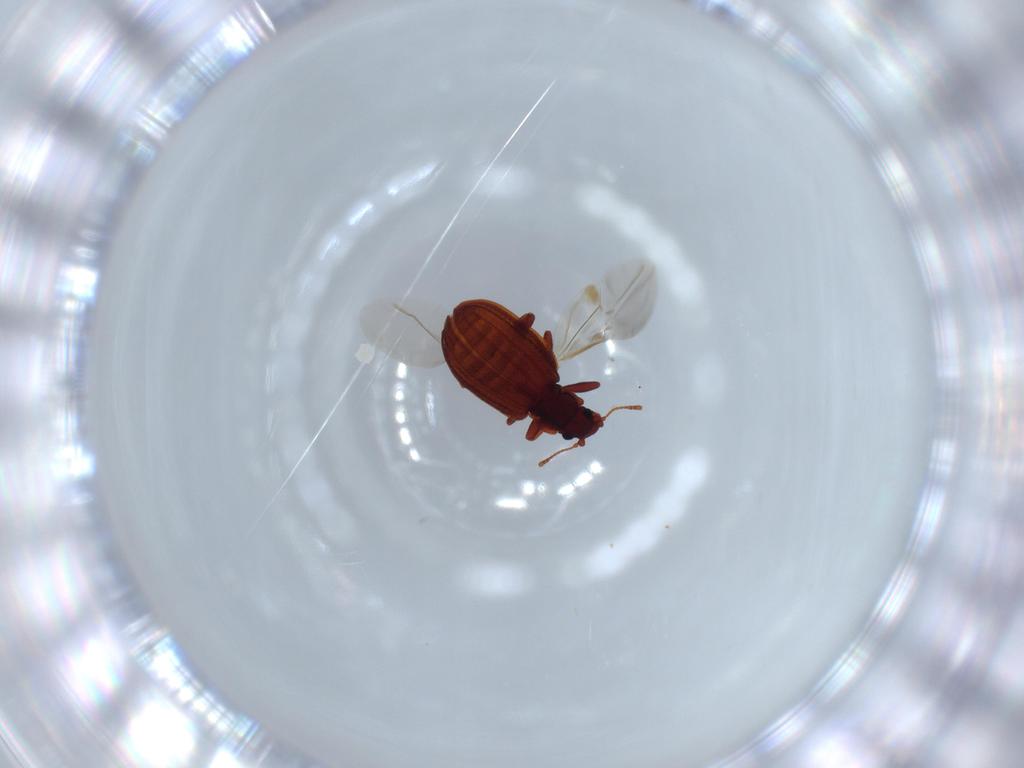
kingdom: Animalia
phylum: Arthropoda
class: Insecta
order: Coleoptera
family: Latridiidae
